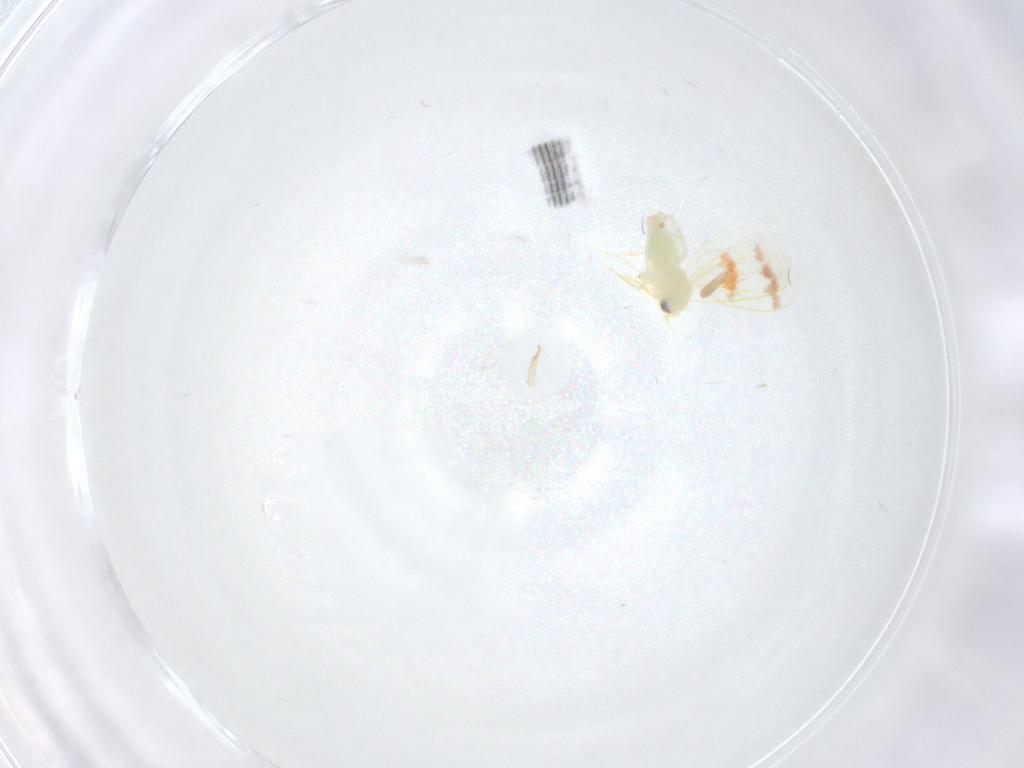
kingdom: Animalia
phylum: Arthropoda
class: Insecta
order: Hemiptera
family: Aleyrodidae
